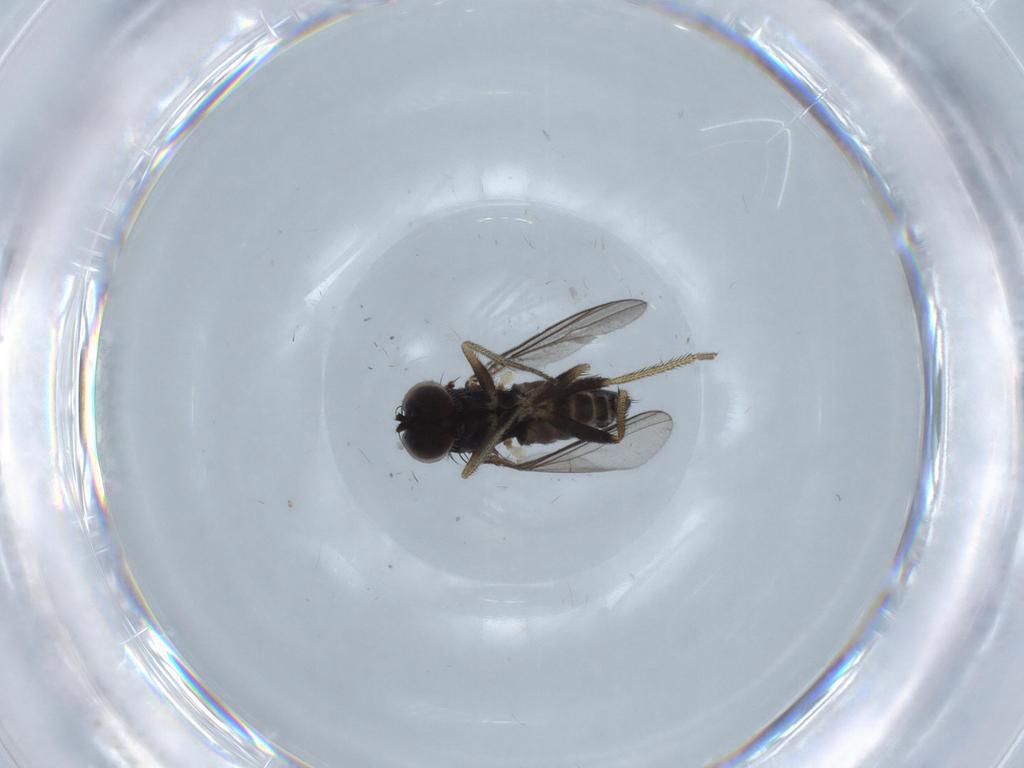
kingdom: Animalia
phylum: Arthropoda
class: Insecta
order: Diptera
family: Dolichopodidae
